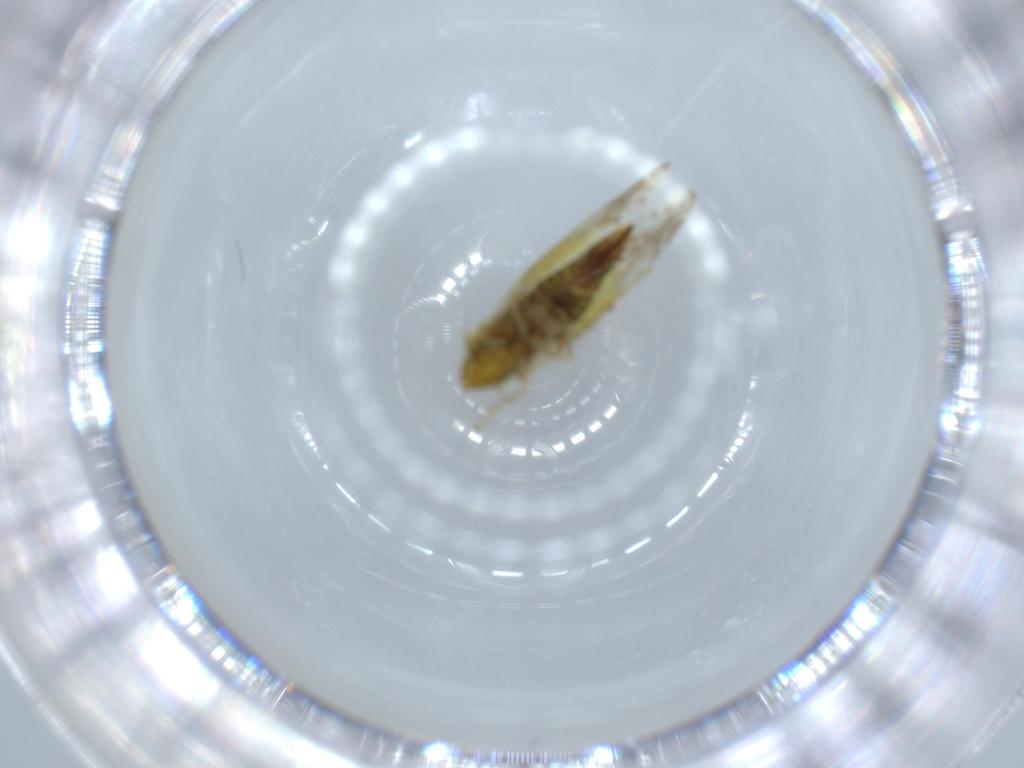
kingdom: Animalia
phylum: Arthropoda
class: Insecta
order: Hemiptera
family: Cicadellidae
